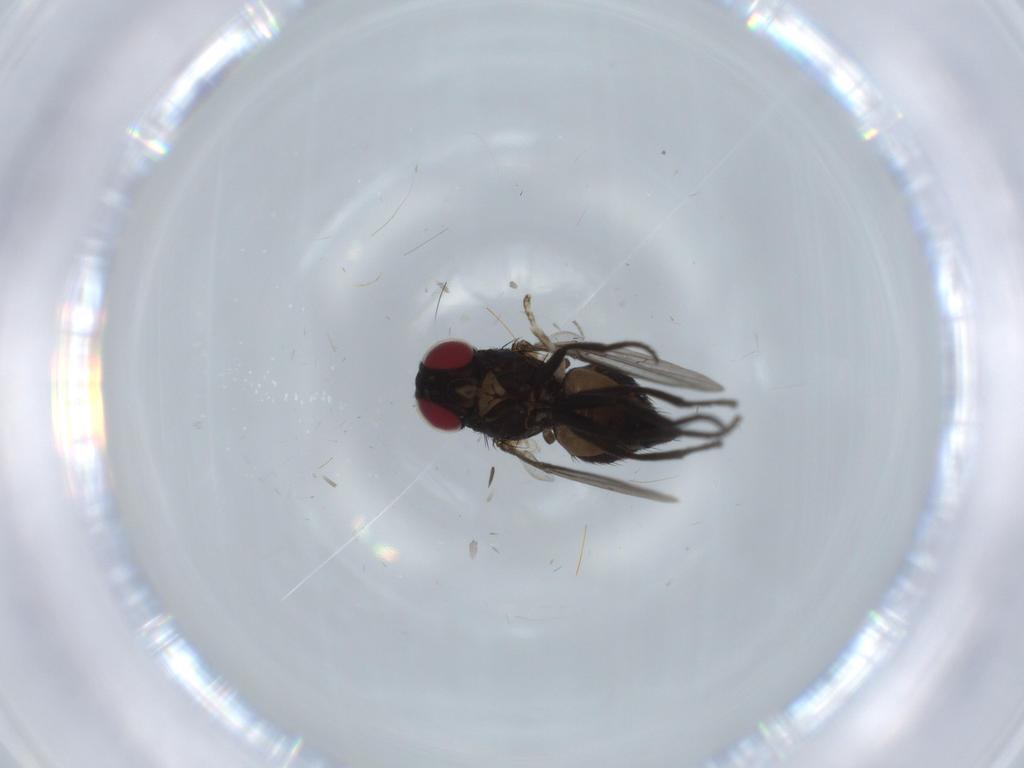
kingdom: Animalia
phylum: Arthropoda
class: Insecta
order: Diptera
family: Agromyzidae
